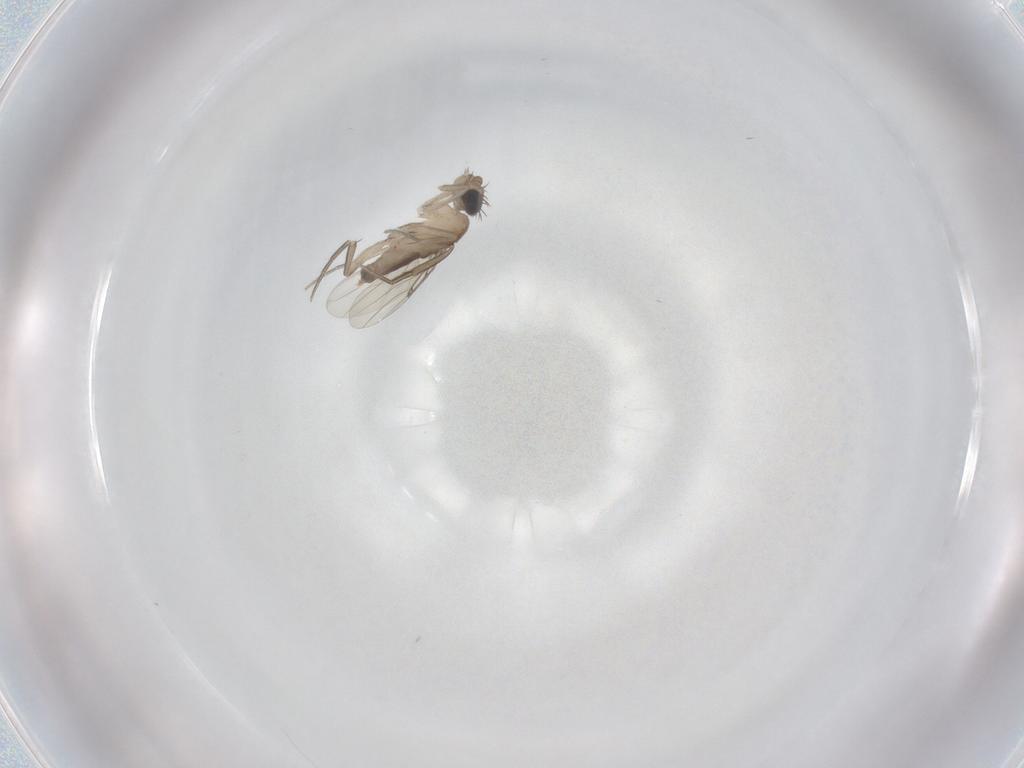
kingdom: Animalia
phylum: Arthropoda
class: Insecta
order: Diptera
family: Phoridae
